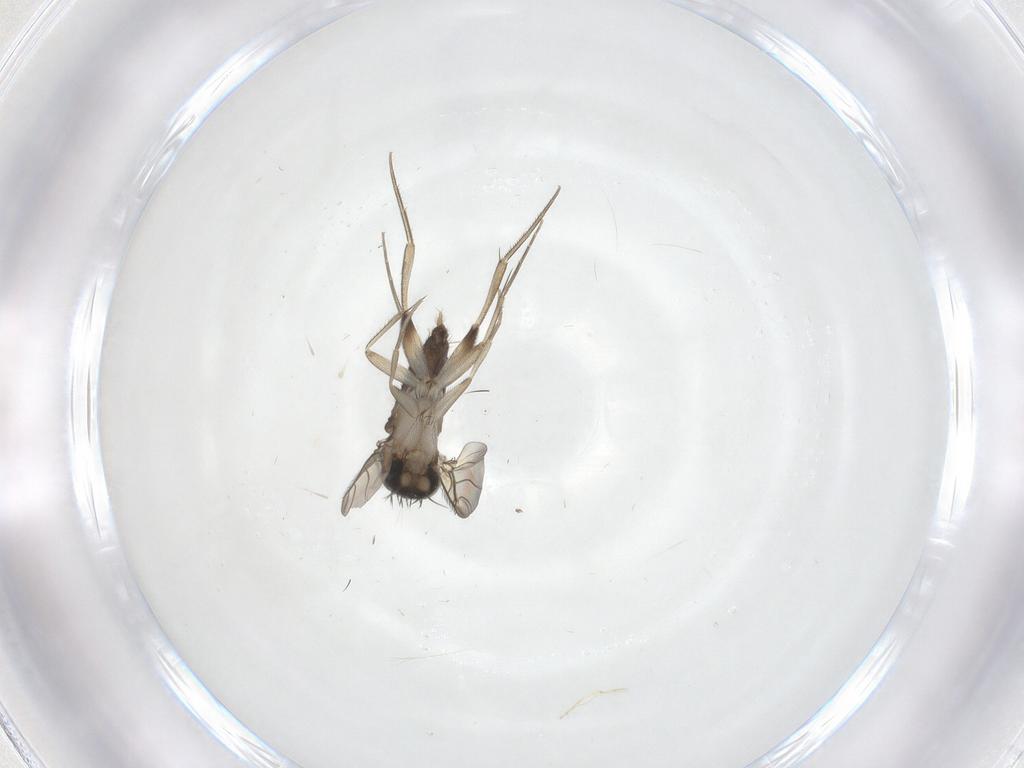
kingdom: Animalia
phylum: Arthropoda
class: Insecta
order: Diptera
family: Phoridae
